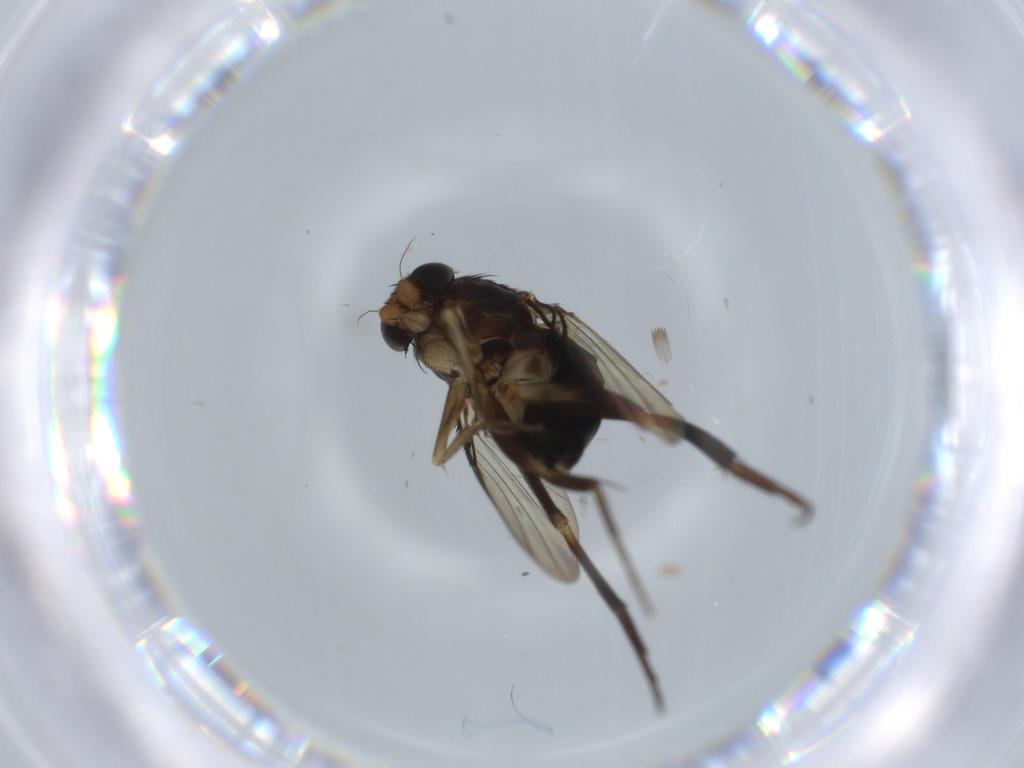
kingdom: Animalia
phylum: Arthropoda
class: Insecta
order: Diptera
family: Phoridae
